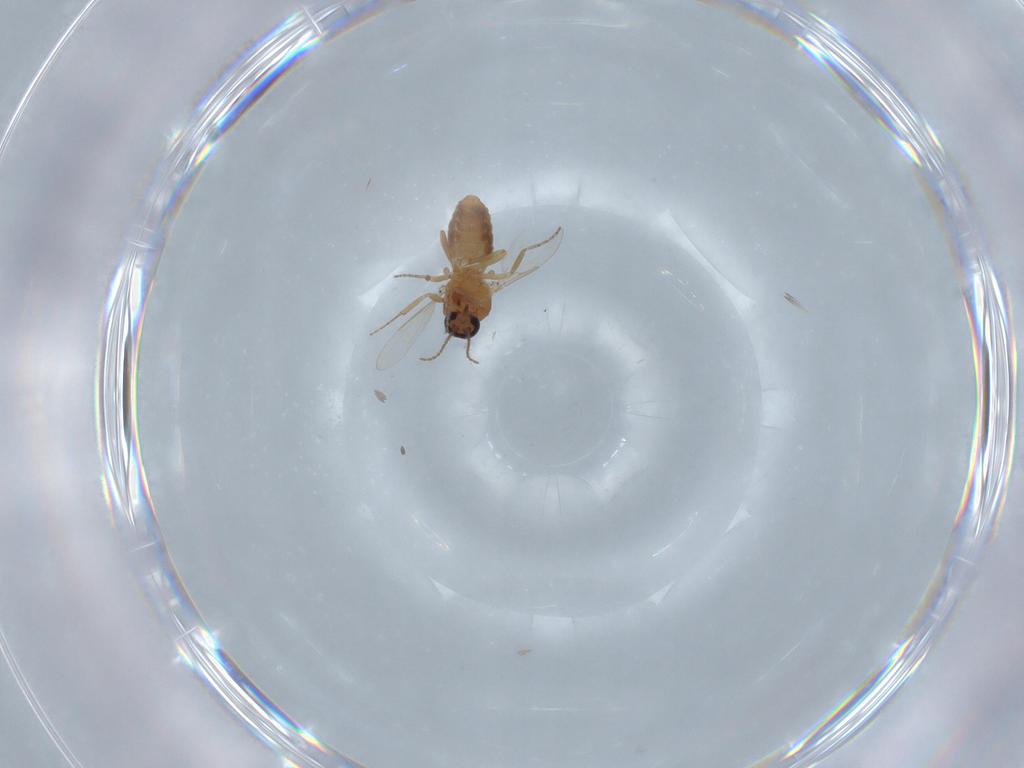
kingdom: Animalia
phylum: Arthropoda
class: Insecta
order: Diptera
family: Ceratopogonidae
